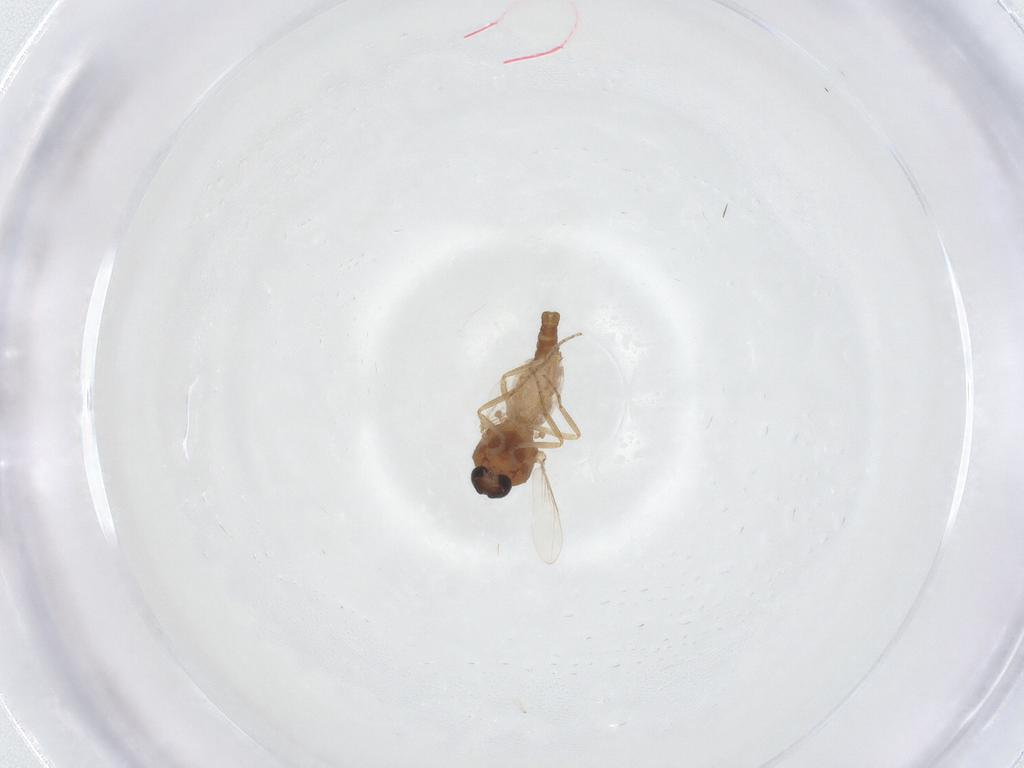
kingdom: Animalia
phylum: Arthropoda
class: Insecta
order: Diptera
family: Ceratopogonidae
